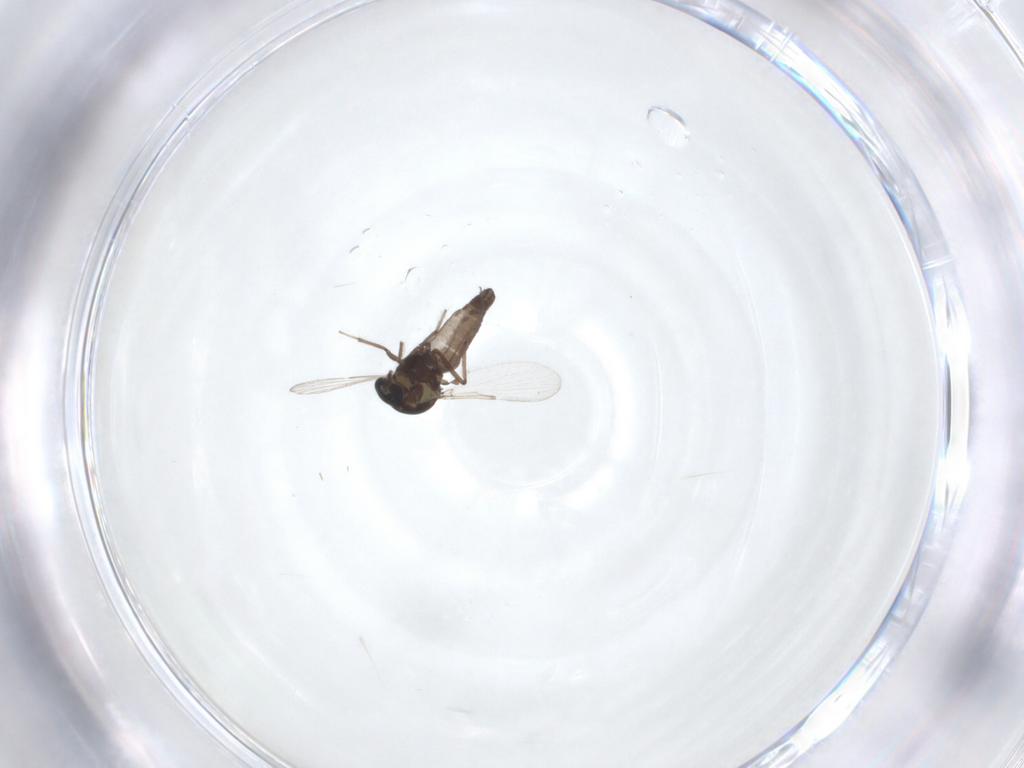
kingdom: Animalia
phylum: Arthropoda
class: Insecta
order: Diptera
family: Ceratopogonidae
